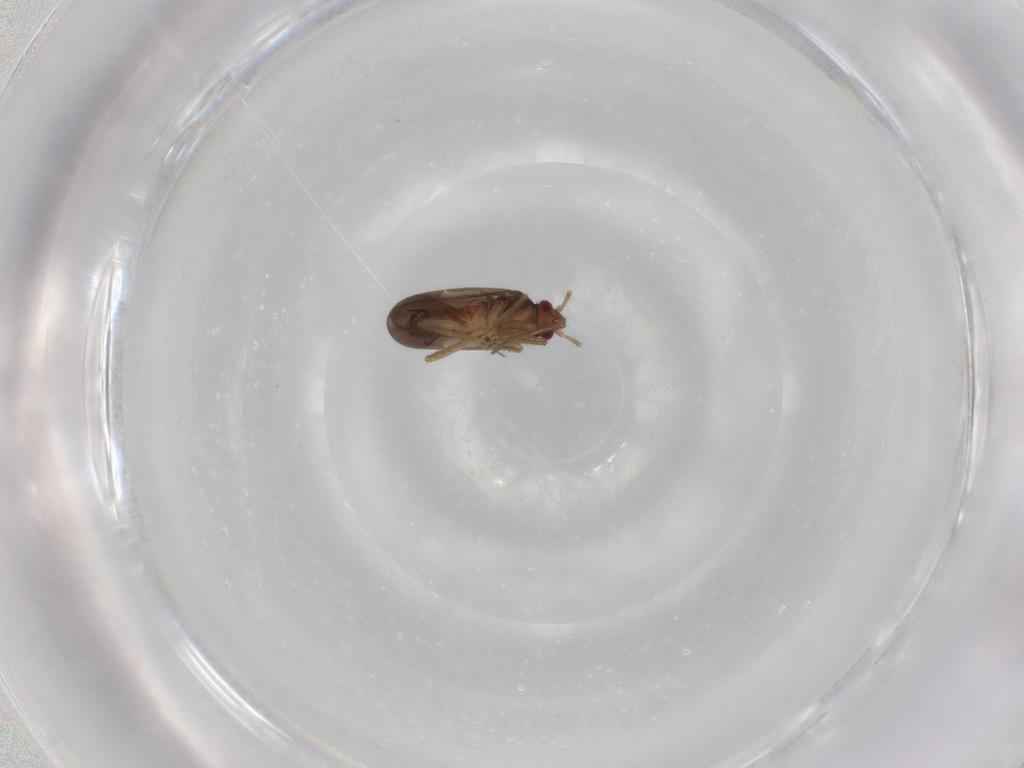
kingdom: Animalia
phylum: Arthropoda
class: Insecta
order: Hemiptera
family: Ceratocombidae
